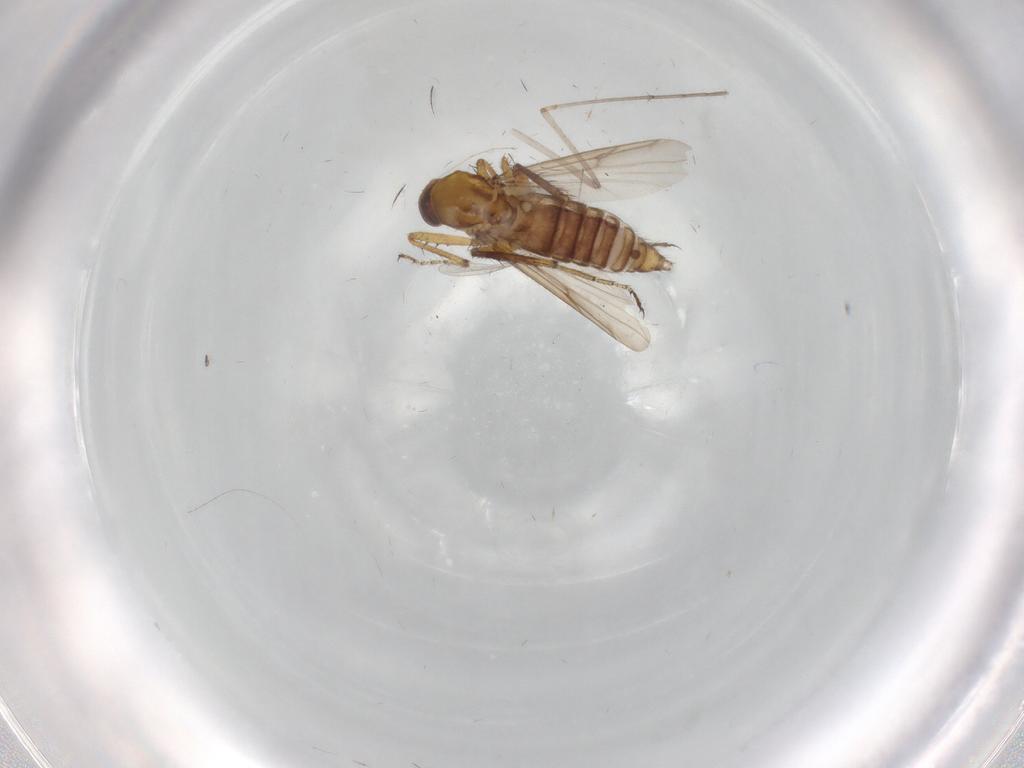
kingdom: Animalia
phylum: Arthropoda
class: Insecta
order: Diptera
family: Ceratopogonidae
